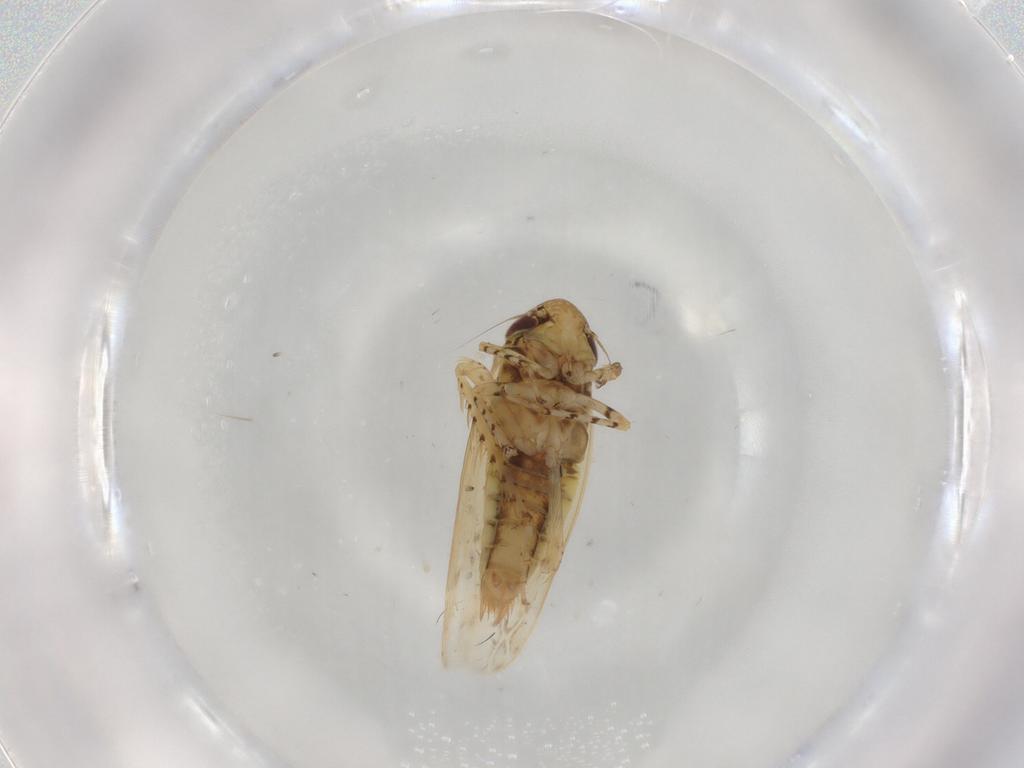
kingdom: Animalia
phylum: Arthropoda
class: Insecta
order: Hemiptera
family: Cicadellidae
